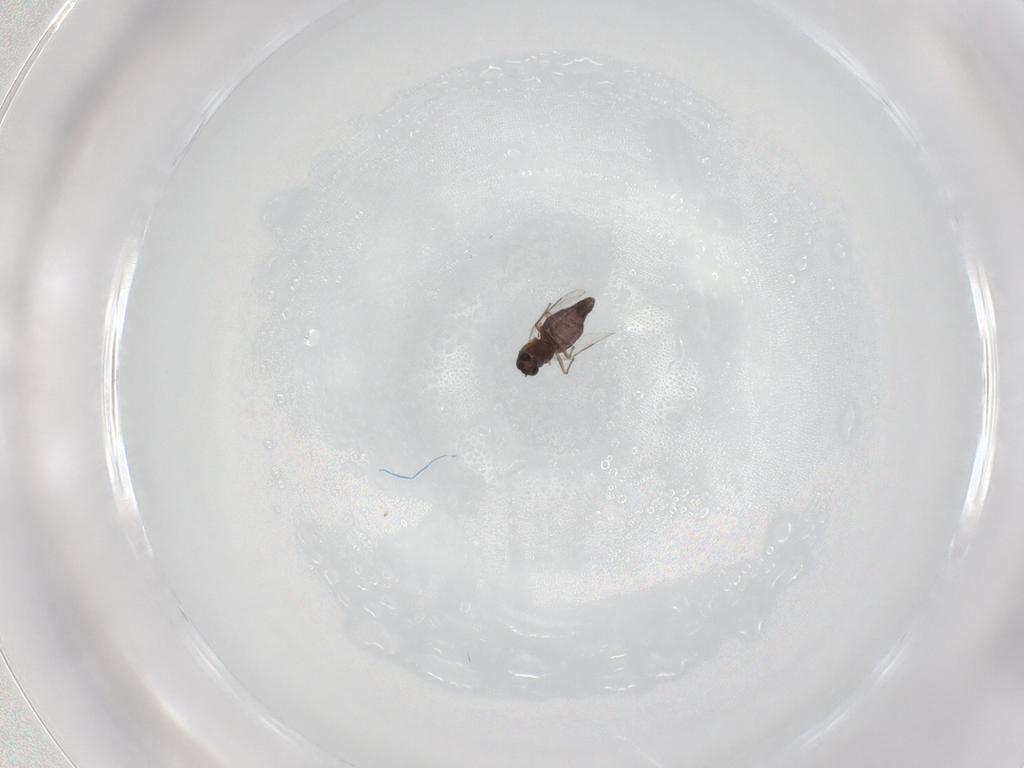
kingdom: Animalia
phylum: Arthropoda
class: Insecta
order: Diptera
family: Chironomidae
